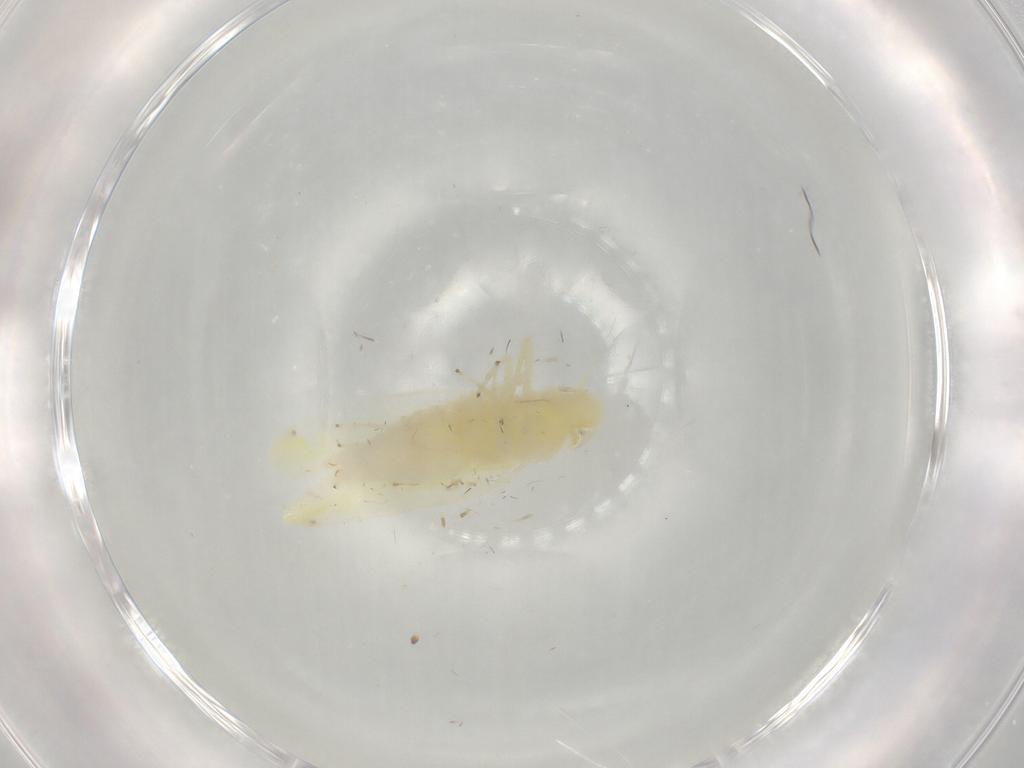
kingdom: Animalia
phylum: Arthropoda
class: Insecta
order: Hemiptera
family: Cicadellidae
